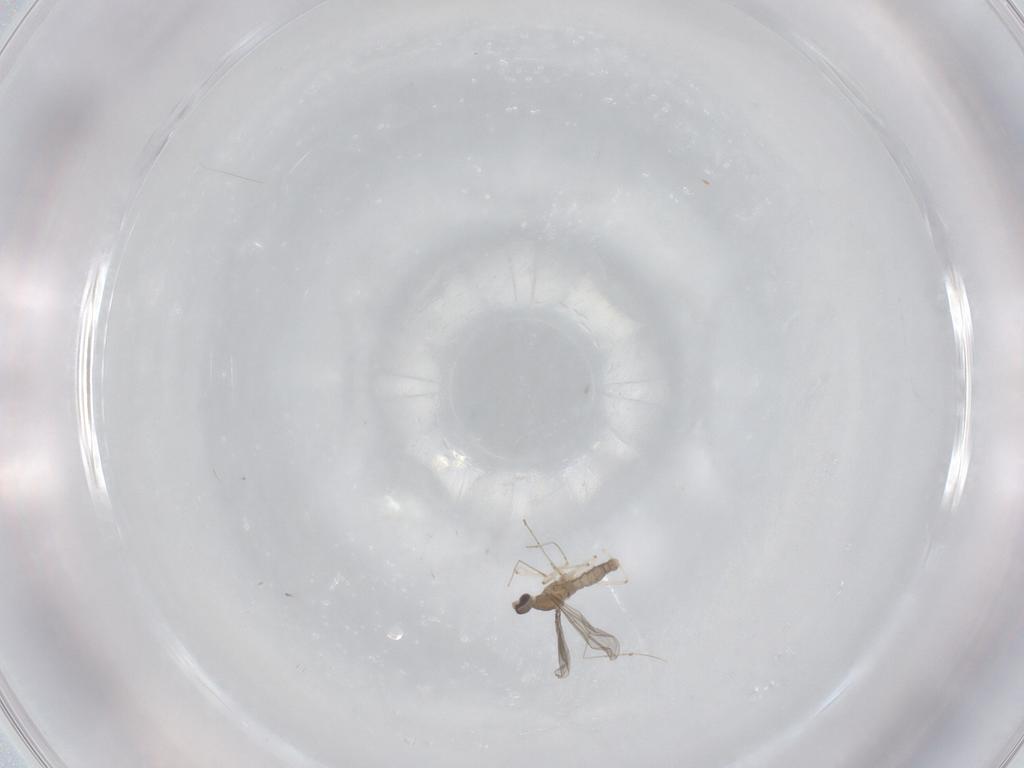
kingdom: Animalia
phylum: Arthropoda
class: Insecta
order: Diptera
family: Cecidomyiidae
